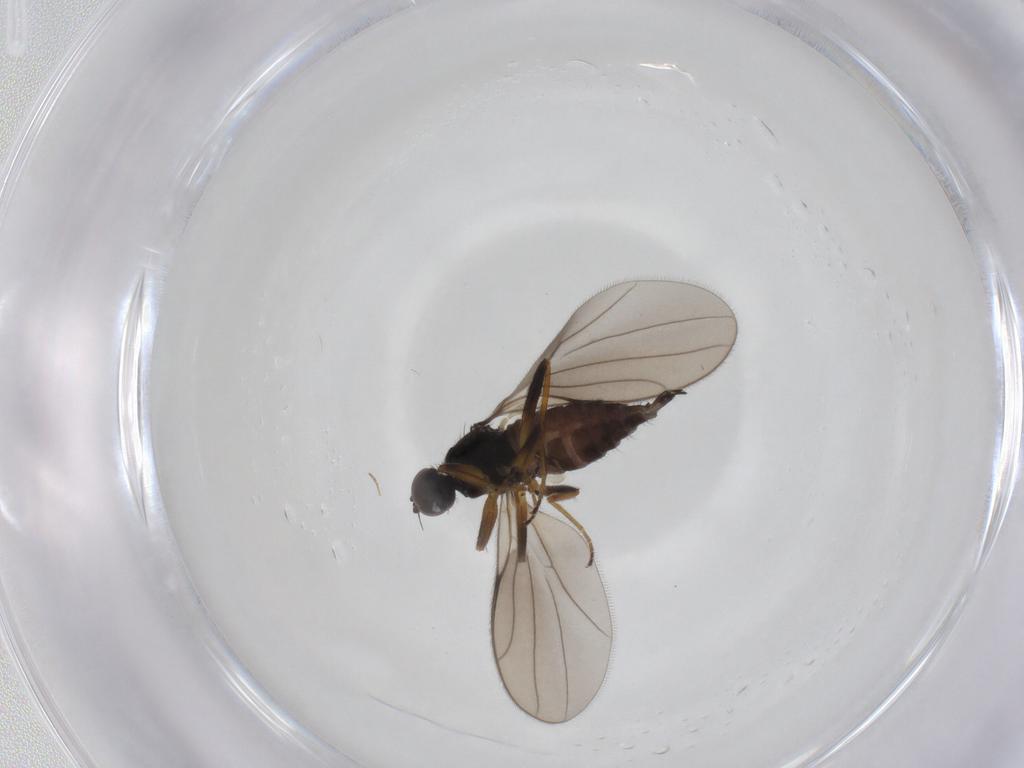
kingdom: Animalia
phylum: Arthropoda
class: Insecta
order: Diptera
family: Hybotidae
